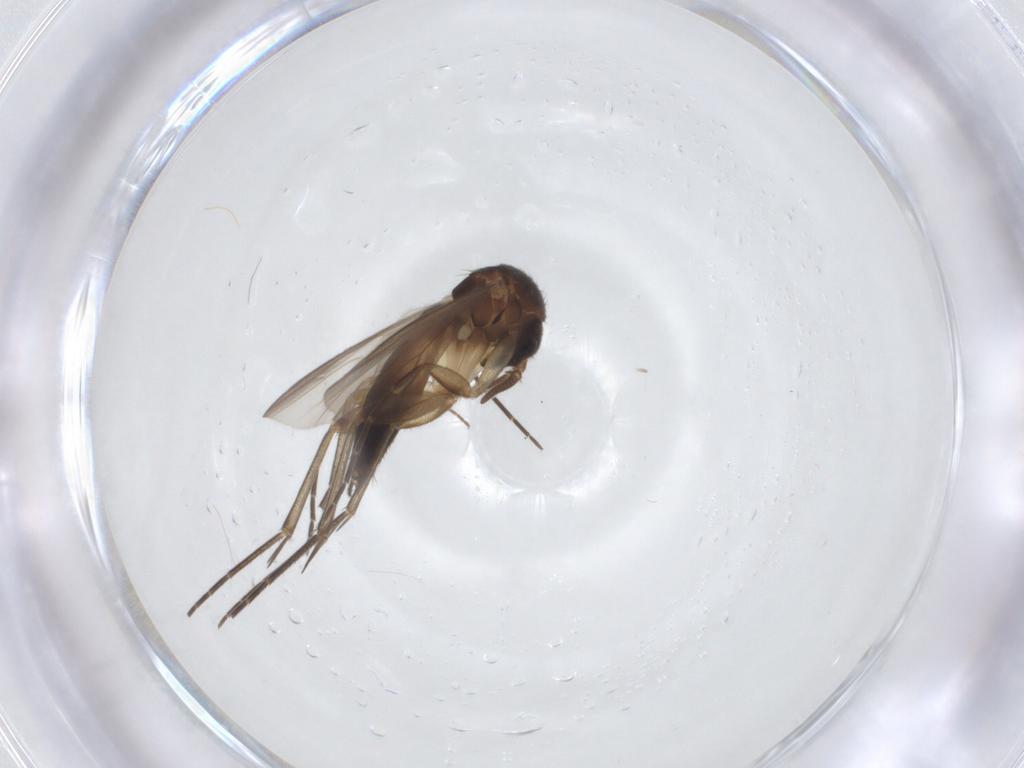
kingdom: Animalia
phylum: Arthropoda
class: Insecta
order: Diptera
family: Mycetophilidae
